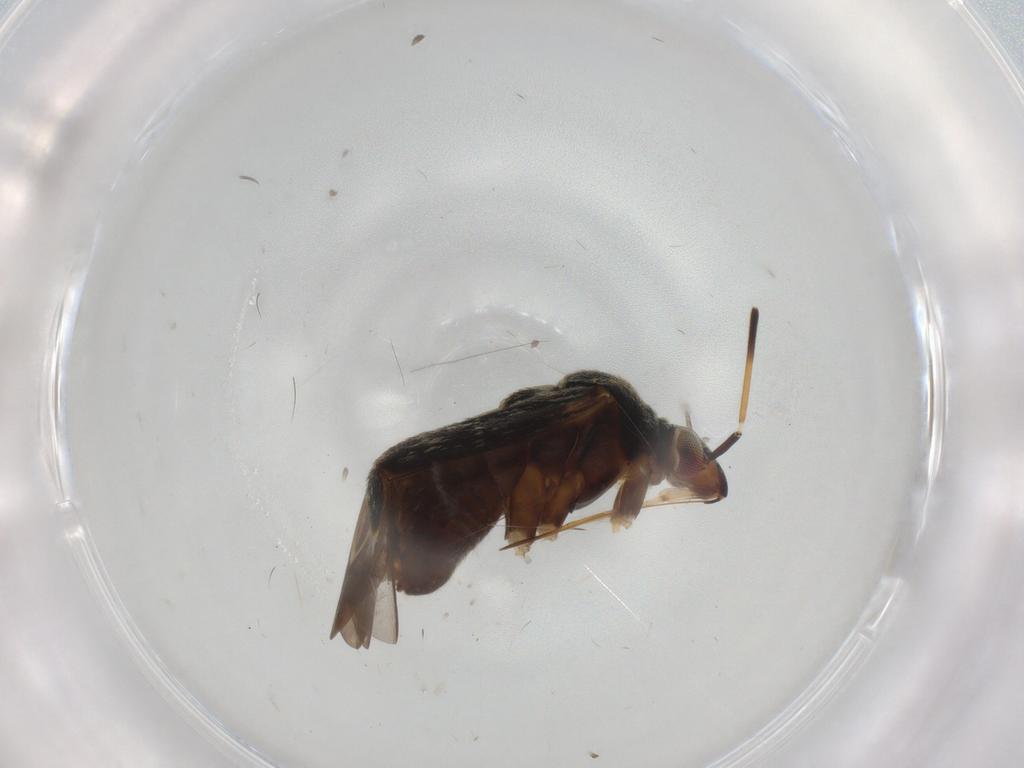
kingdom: Animalia
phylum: Arthropoda
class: Insecta
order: Hemiptera
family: Miridae
